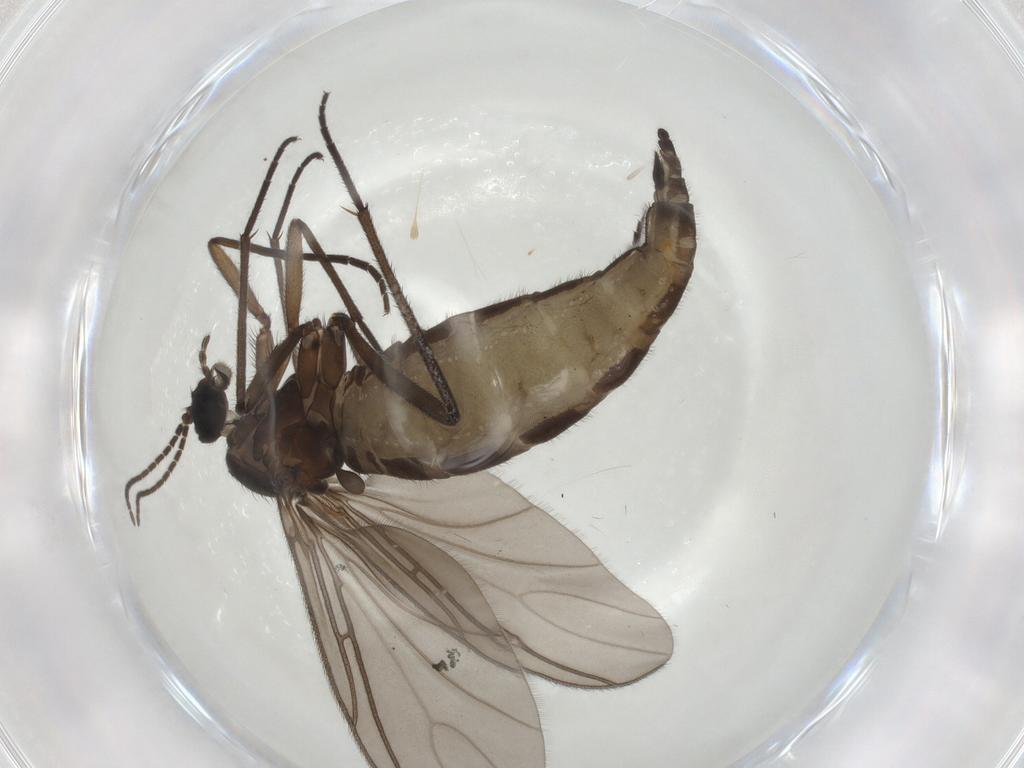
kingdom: Animalia
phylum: Arthropoda
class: Insecta
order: Diptera
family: Sciaridae
